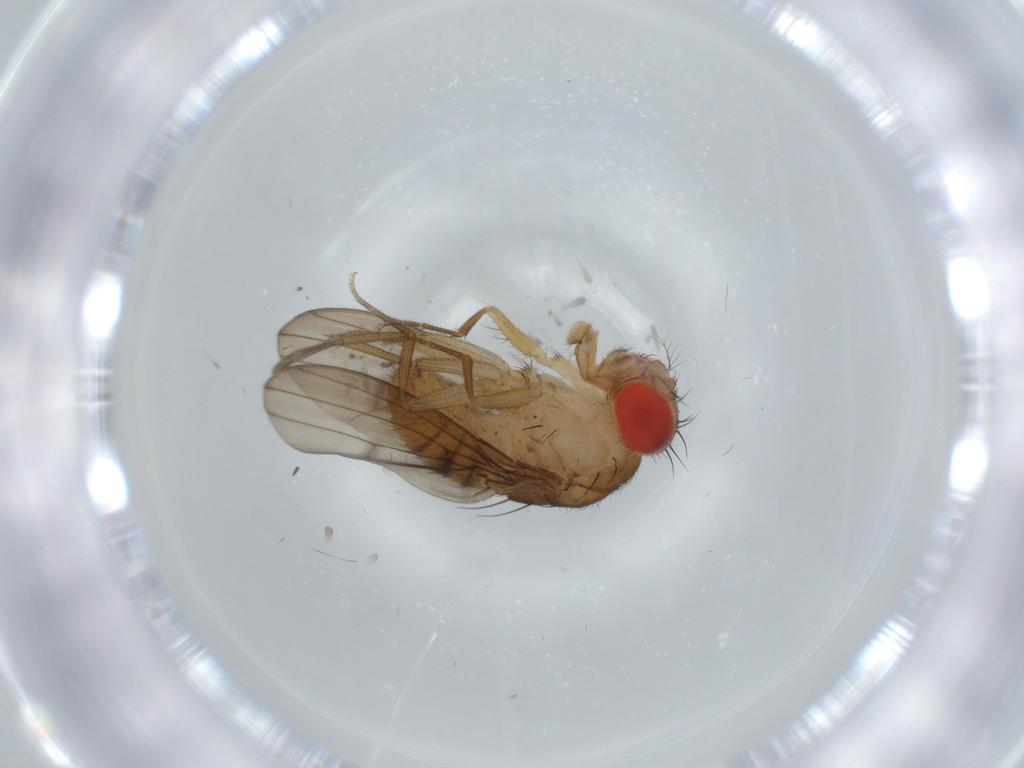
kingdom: Animalia
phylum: Arthropoda
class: Insecta
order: Diptera
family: Drosophilidae
